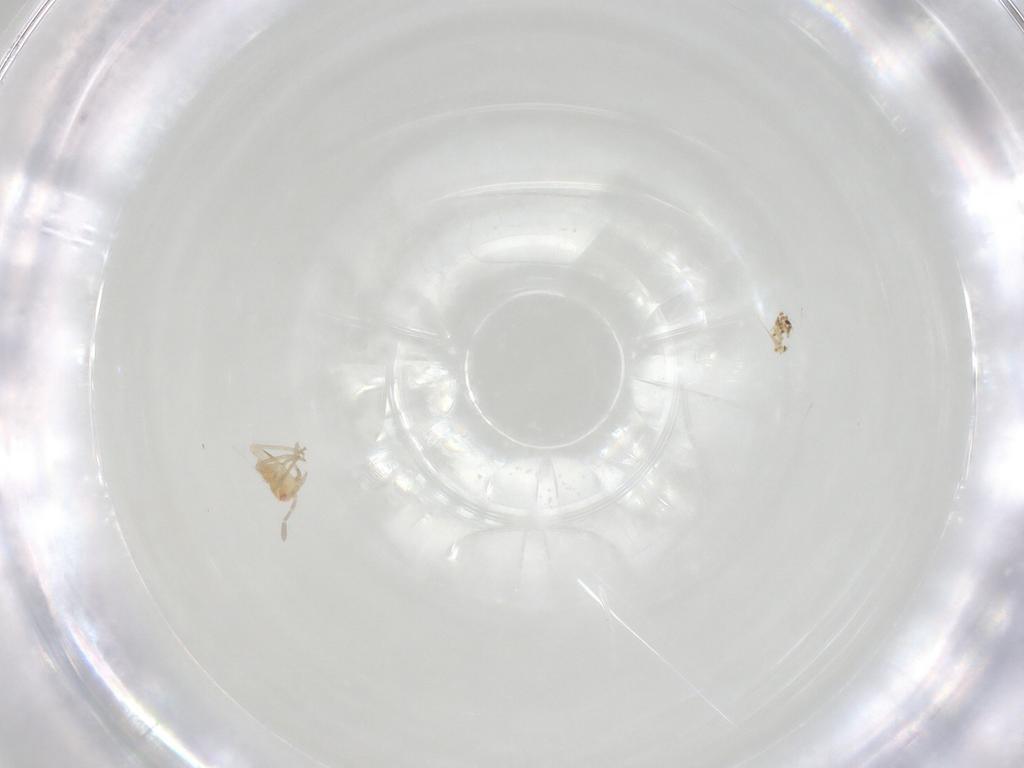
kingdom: Animalia
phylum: Arthropoda
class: Insecta
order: Hemiptera
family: Miridae
